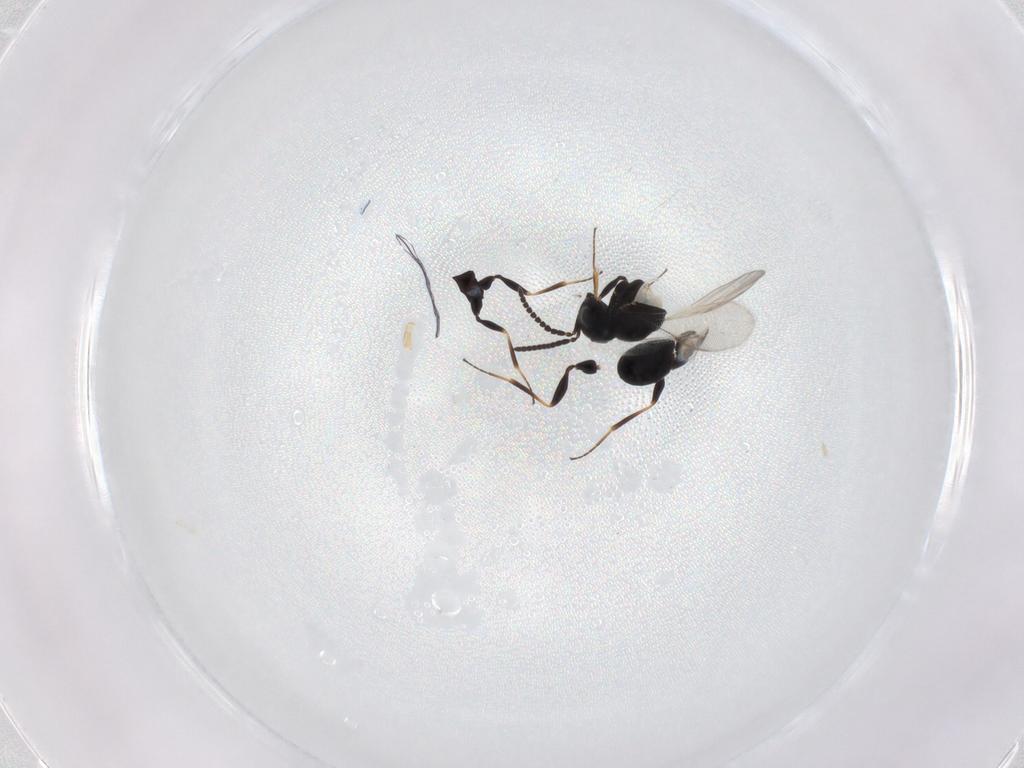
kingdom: Animalia
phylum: Arthropoda
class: Insecta
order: Hymenoptera
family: Scelionidae
